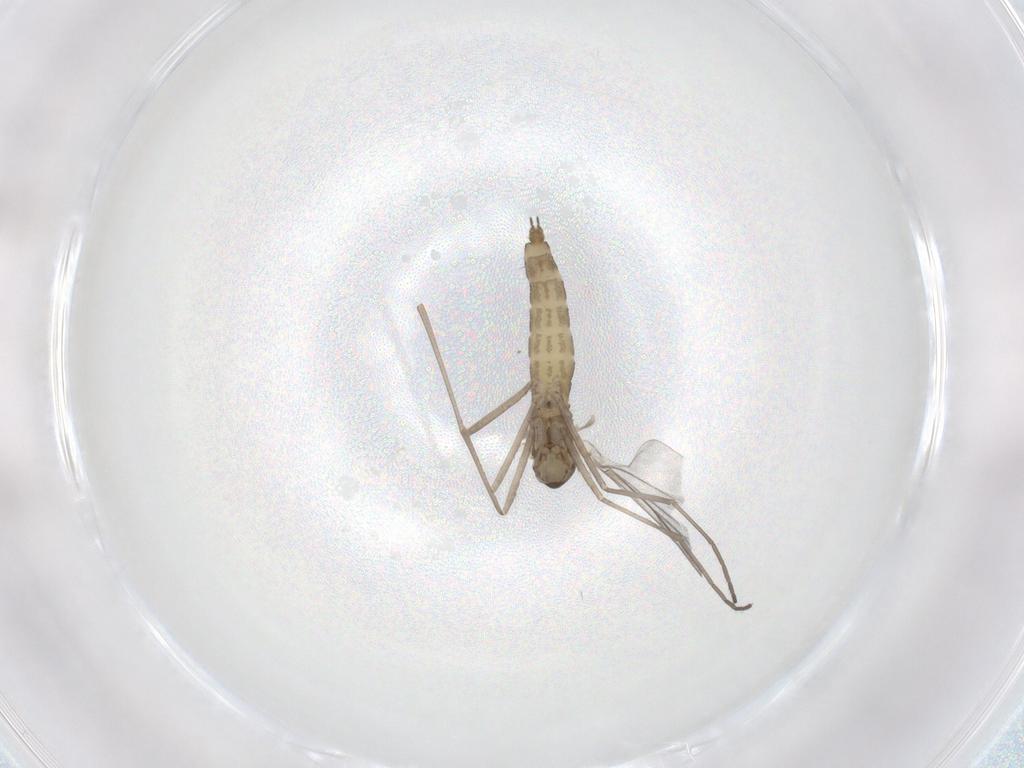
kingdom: Animalia
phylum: Arthropoda
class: Insecta
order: Diptera
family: Cecidomyiidae
